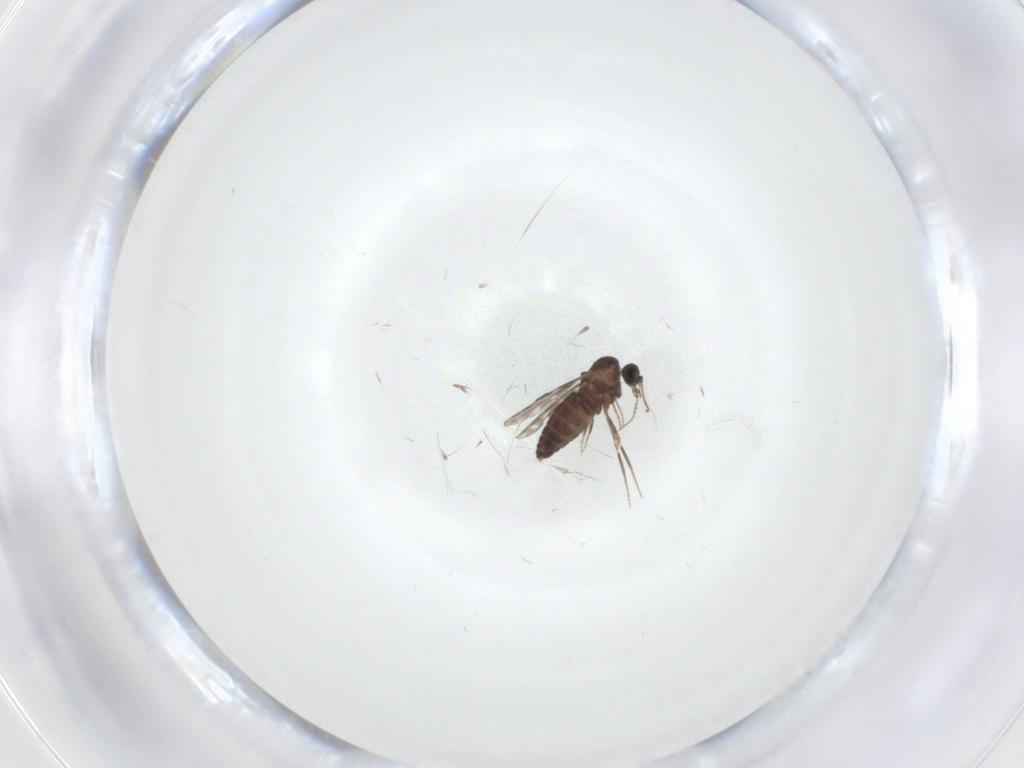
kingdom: Animalia
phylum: Arthropoda
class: Insecta
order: Diptera
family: Ceratopogonidae
